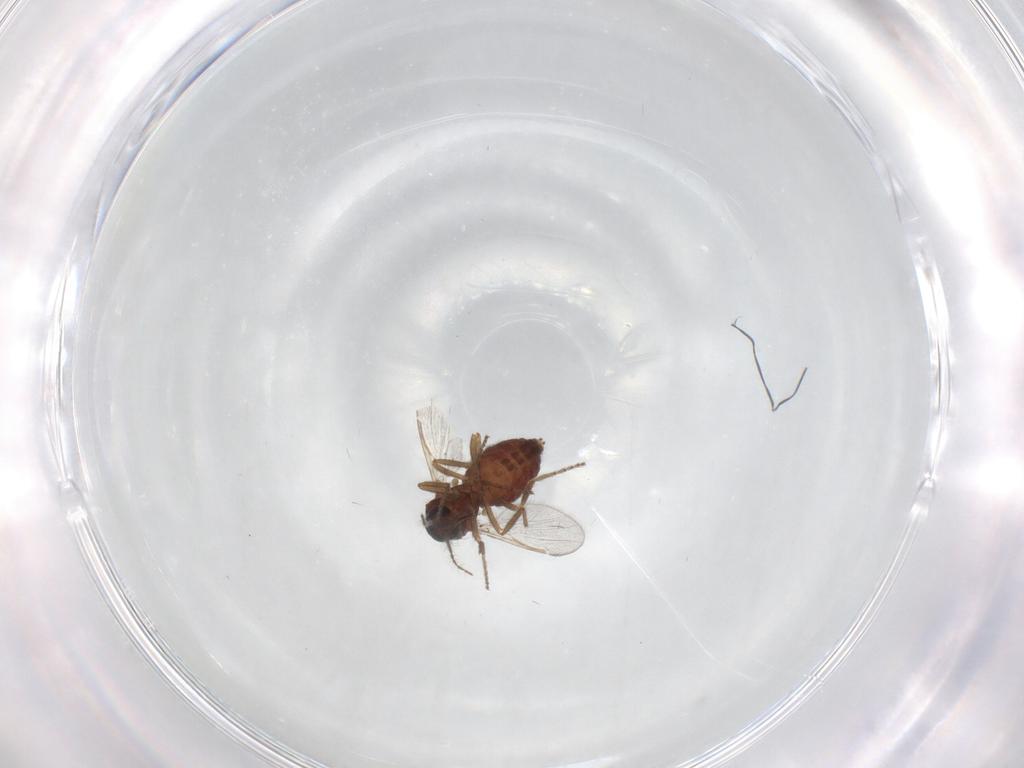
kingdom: Animalia
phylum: Arthropoda
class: Insecta
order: Diptera
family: Ceratopogonidae
